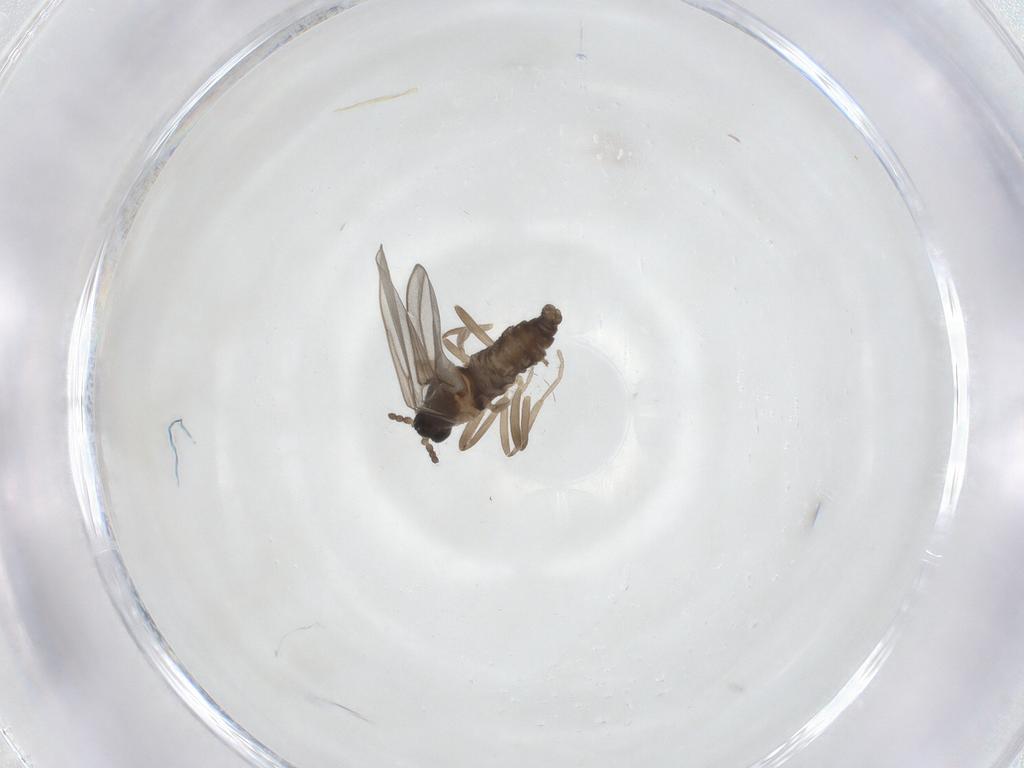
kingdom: Animalia
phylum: Arthropoda
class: Insecta
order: Diptera
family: Cecidomyiidae
